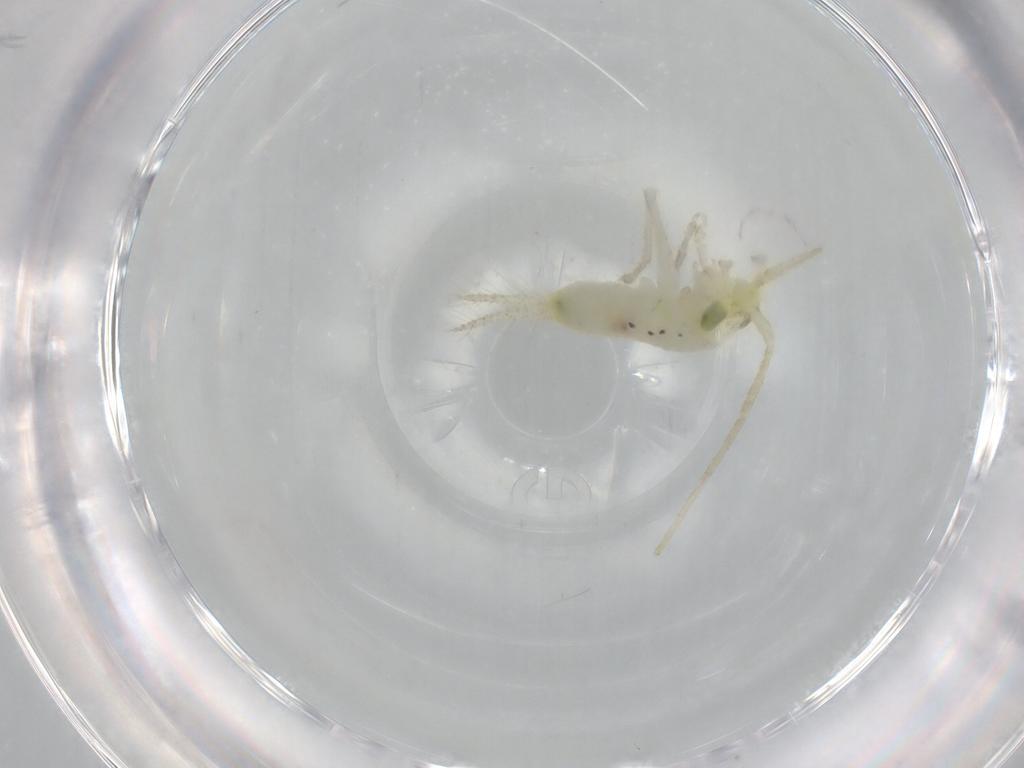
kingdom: Animalia
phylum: Arthropoda
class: Insecta
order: Orthoptera
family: Trigonidiidae
